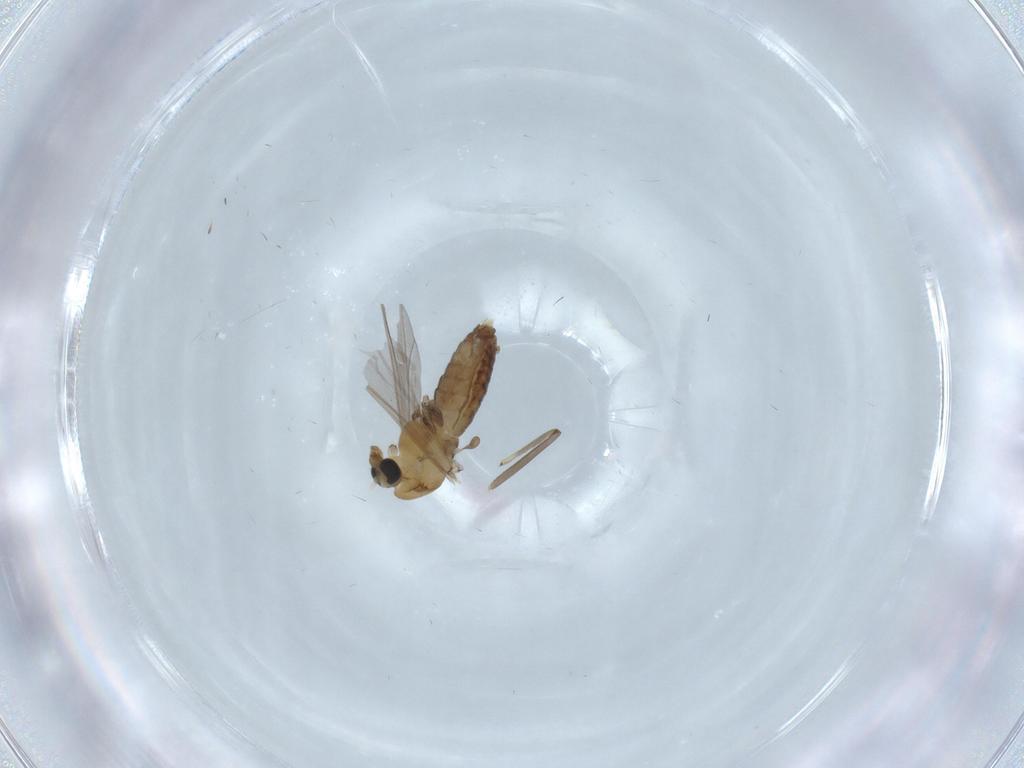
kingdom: Animalia
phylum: Arthropoda
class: Insecta
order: Diptera
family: Chironomidae
